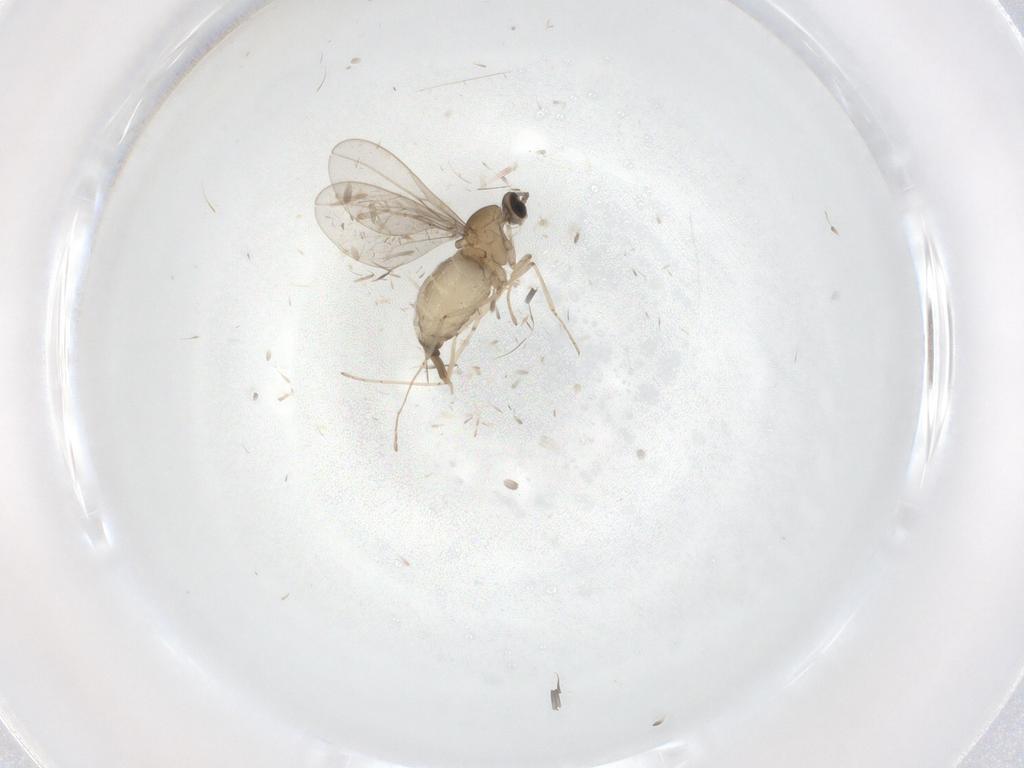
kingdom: Animalia
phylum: Arthropoda
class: Insecta
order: Diptera
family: Cecidomyiidae
